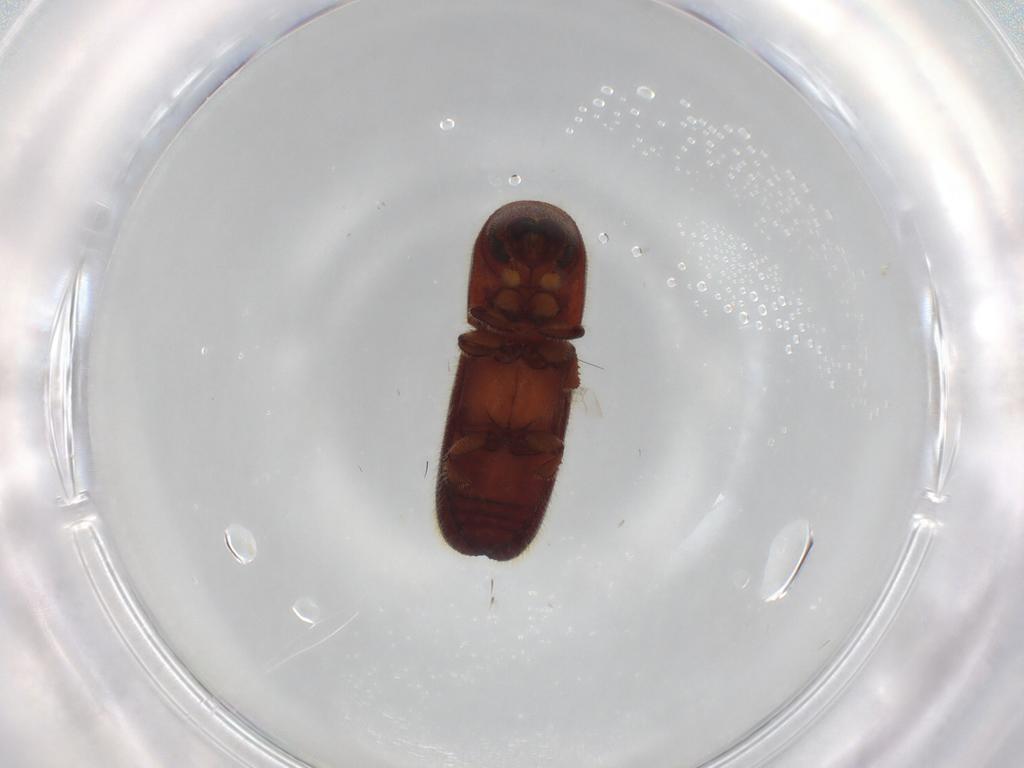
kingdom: Animalia
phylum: Arthropoda
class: Insecta
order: Coleoptera
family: Curculionidae
